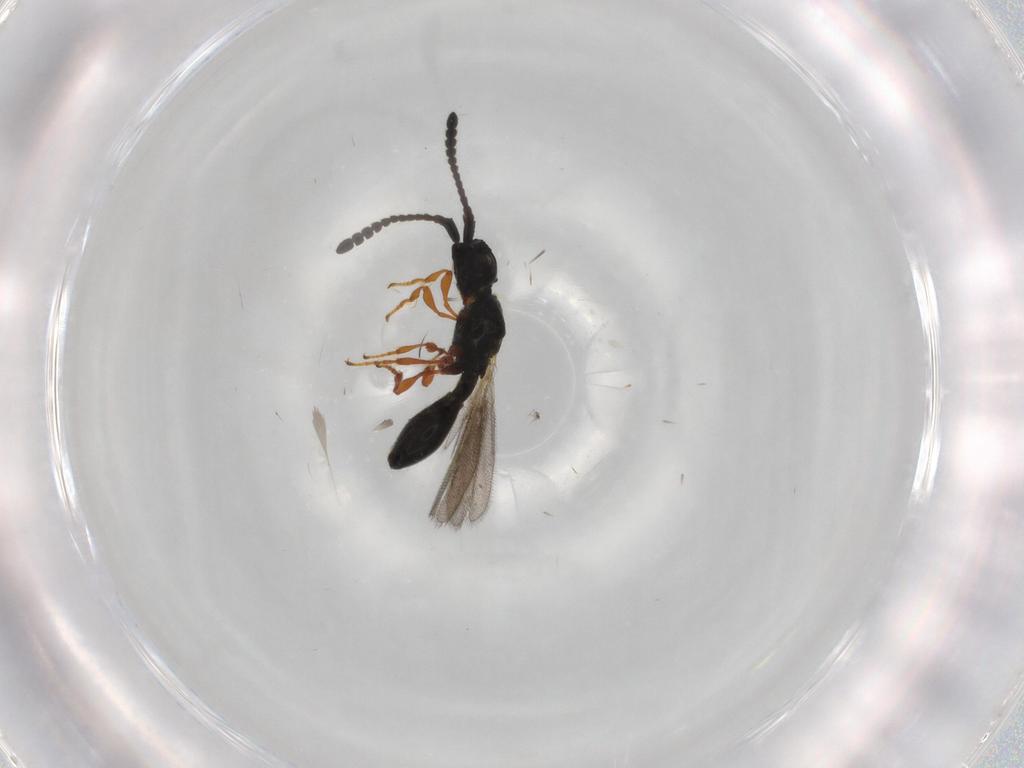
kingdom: Animalia
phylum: Arthropoda
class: Insecta
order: Hymenoptera
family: Diapriidae
